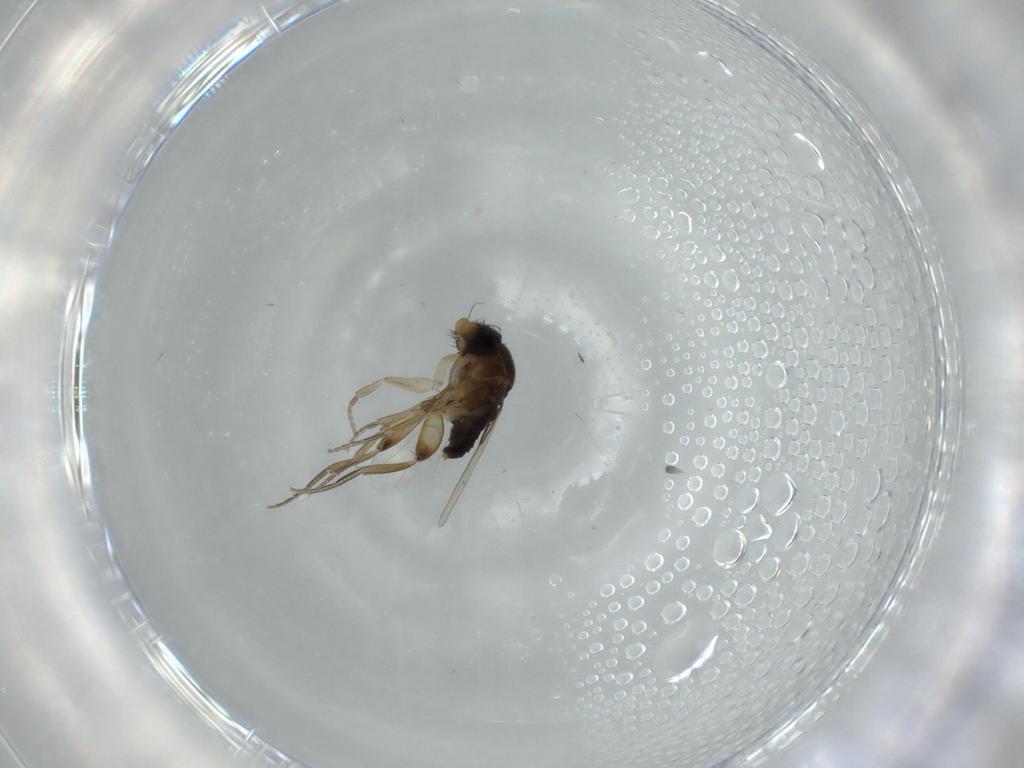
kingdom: Animalia
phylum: Arthropoda
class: Insecta
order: Diptera
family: Phoridae
